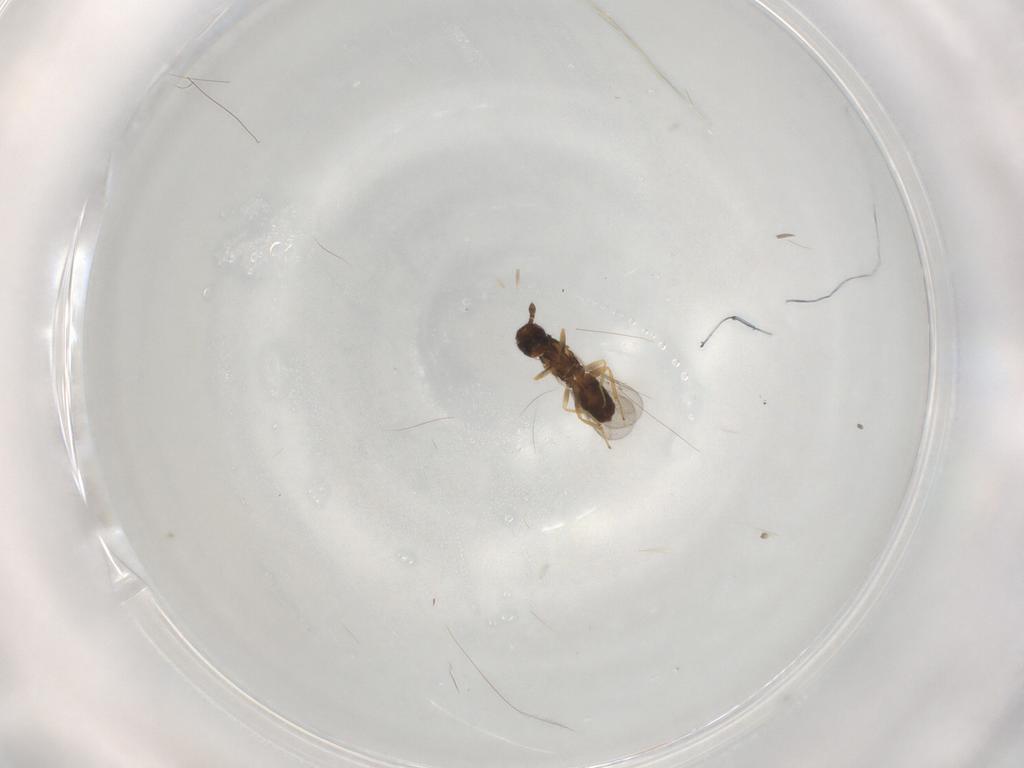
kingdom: Animalia
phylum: Arthropoda
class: Insecta
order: Hymenoptera
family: Eulophidae
